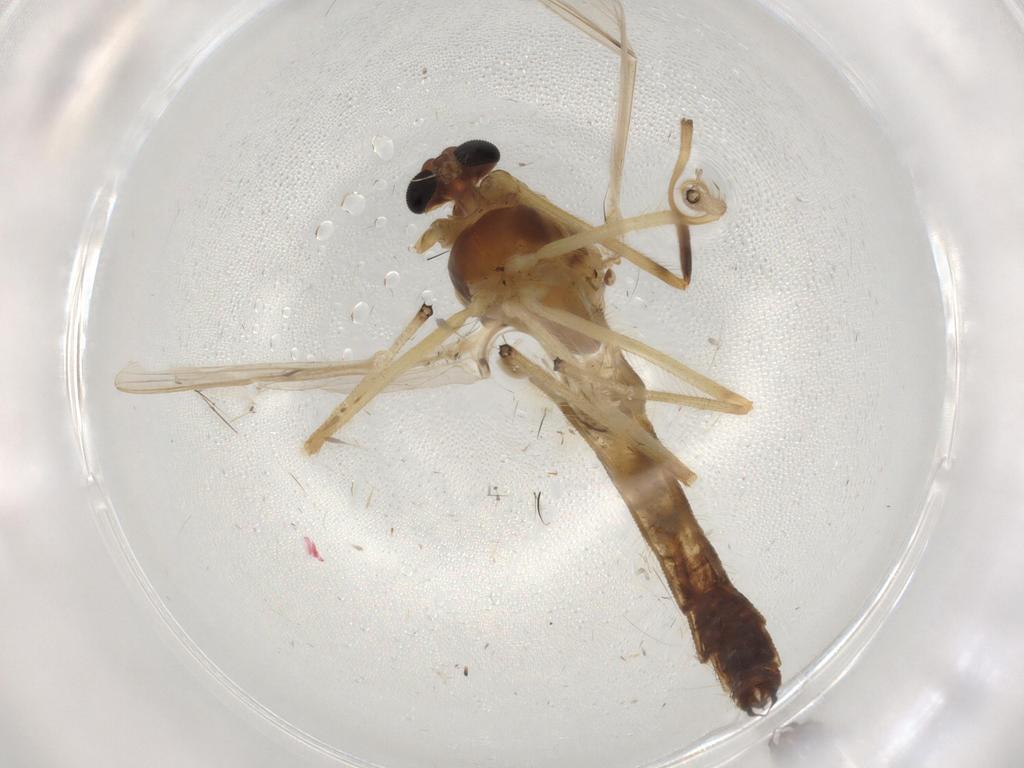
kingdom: Animalia
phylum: Arthropoda
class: Insecta
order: Diptera
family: Chironomidae
